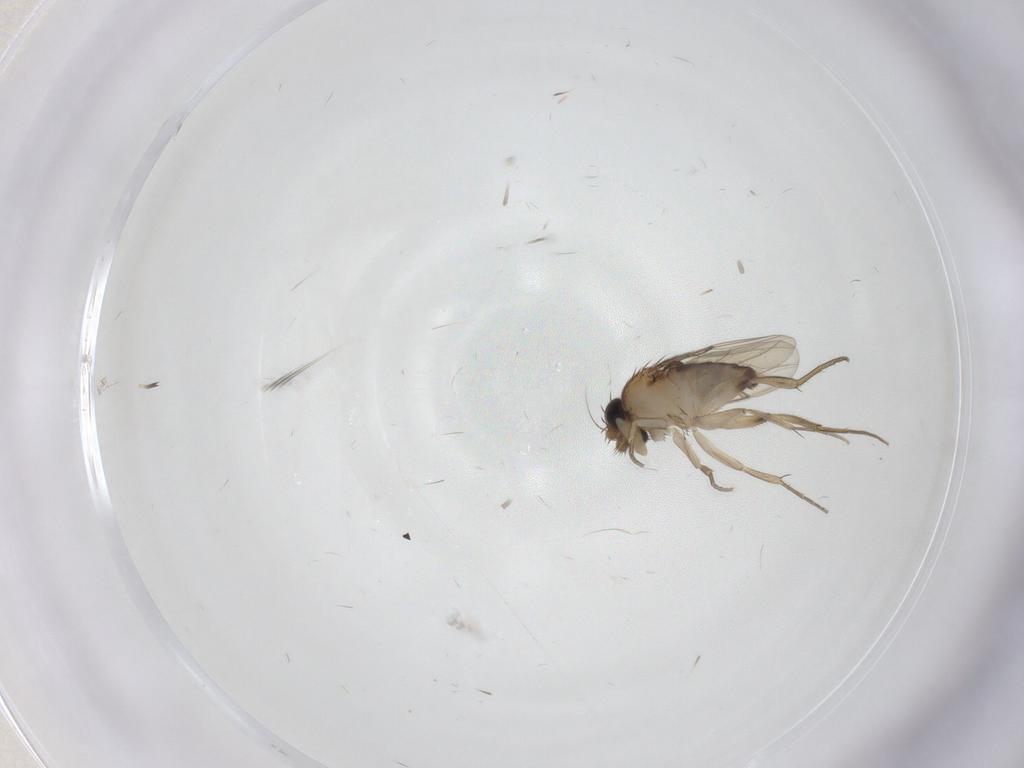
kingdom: Animalia
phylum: Arthropoda
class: Insecta
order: Diptera
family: Phoridae
